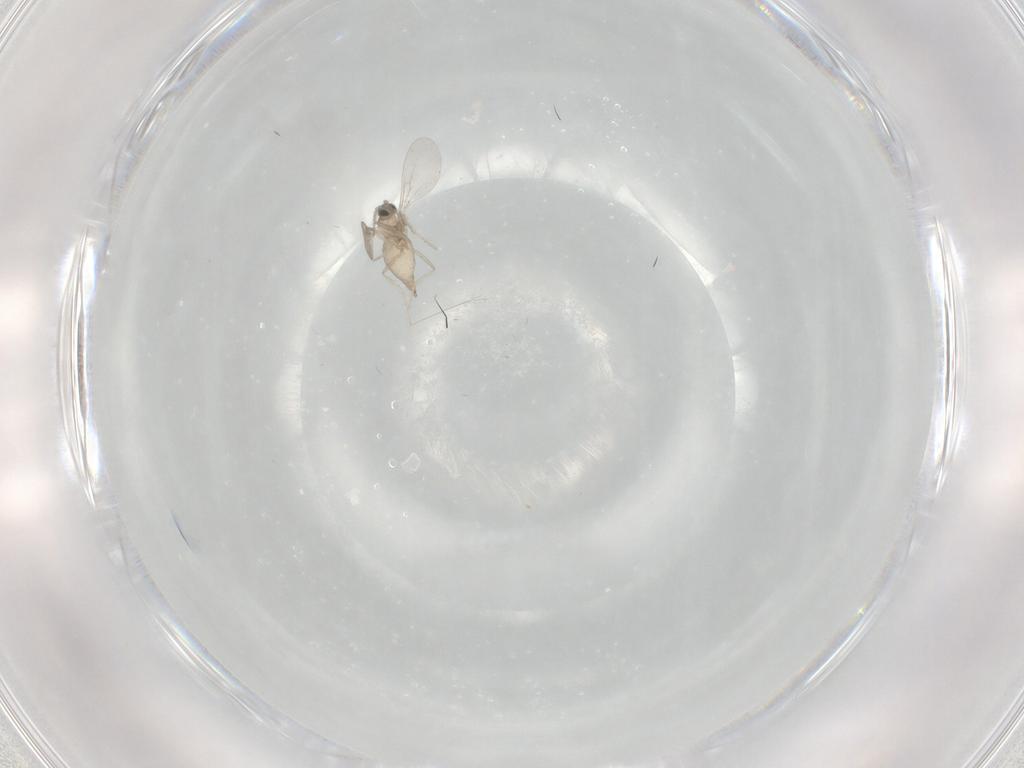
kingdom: Animalia
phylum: Arthropoda
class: Insecta
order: Diptera
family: Cecidomyiidae
